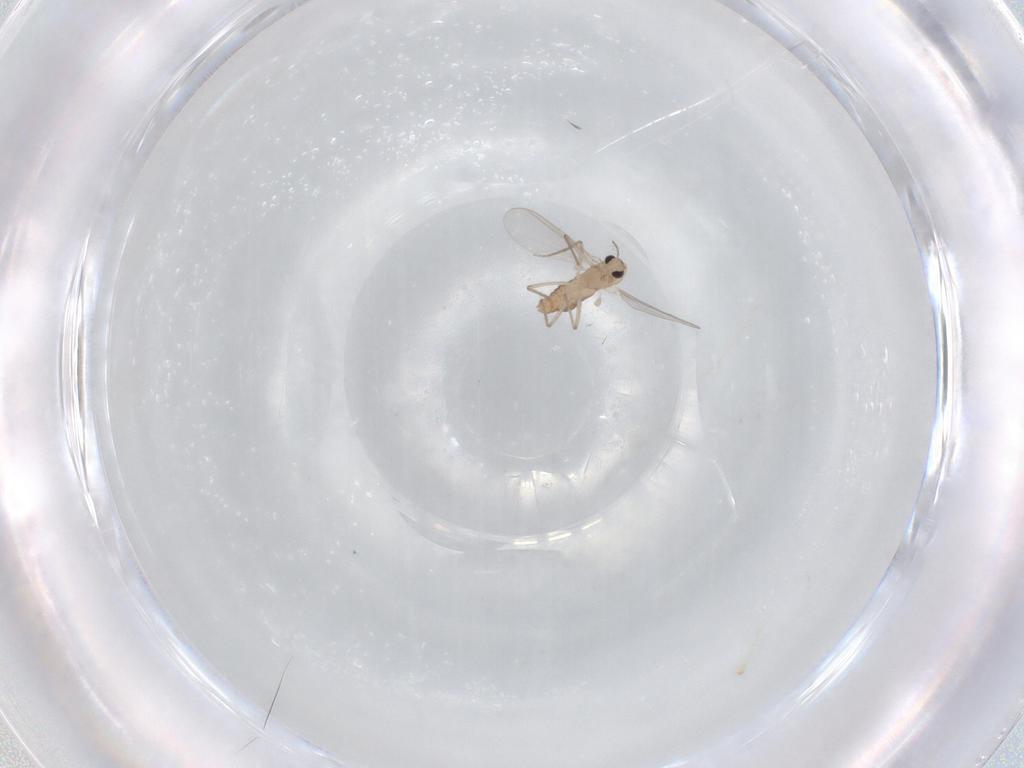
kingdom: Animalia
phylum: Arthropoda
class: Insecta
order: Diptera
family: Chironomidae
